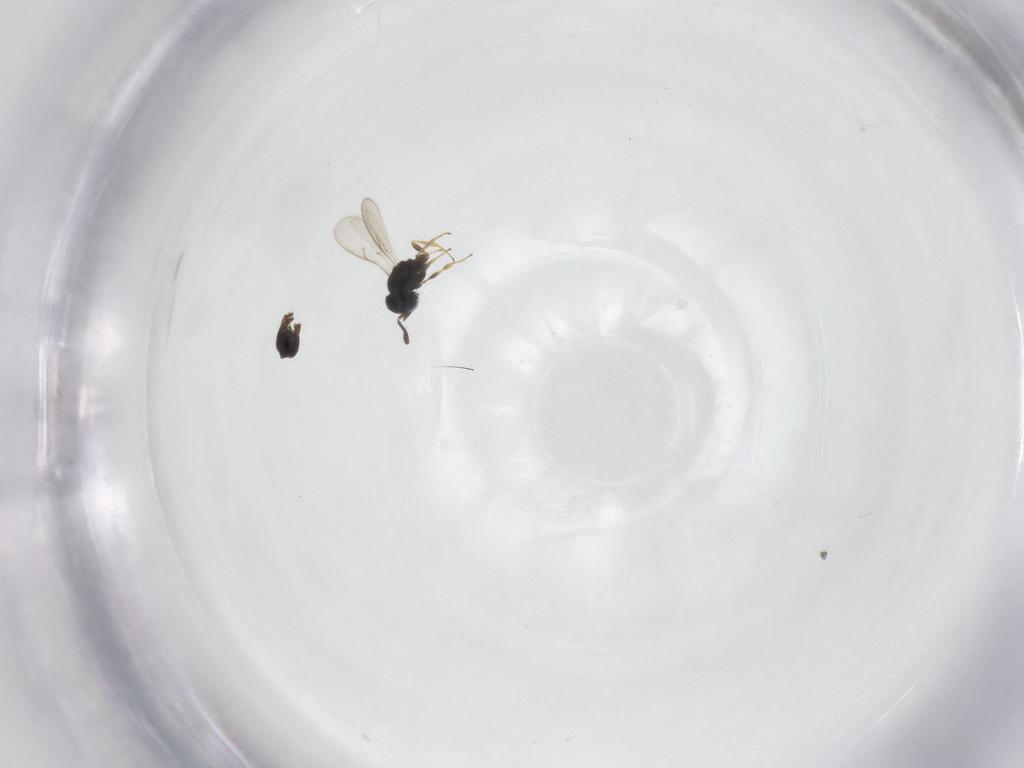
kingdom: Animalia
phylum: Arthropoda
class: Insecta
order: Hymenoptera
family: Scelionidae
